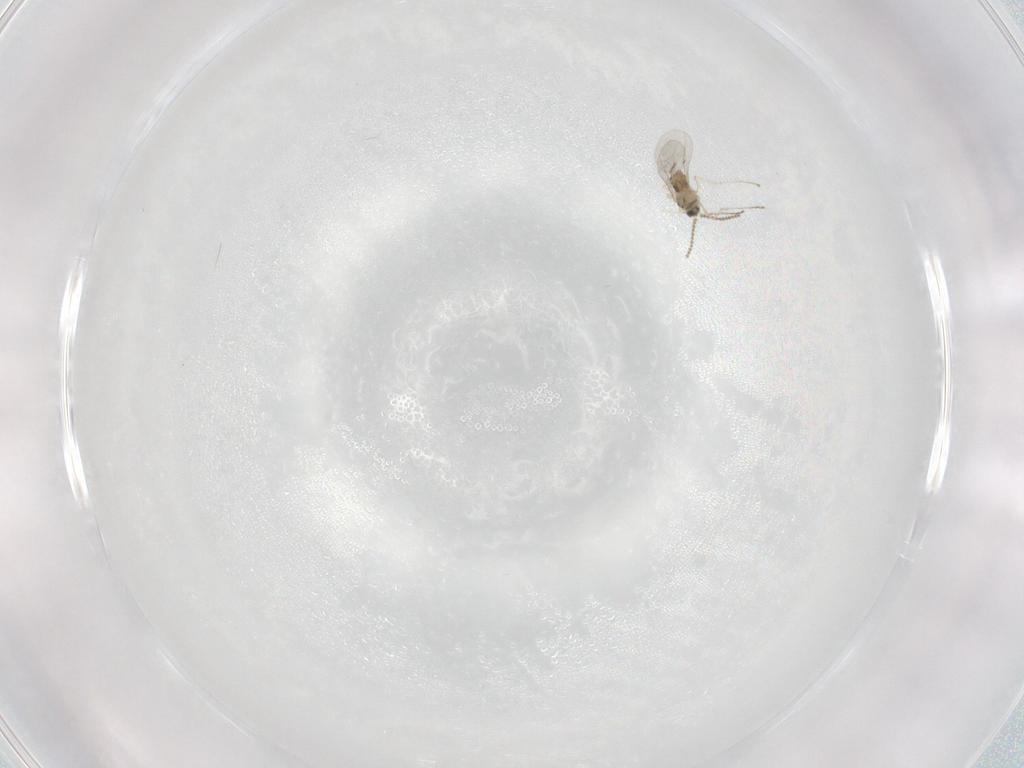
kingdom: Animalia
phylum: Arthropoda
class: Insecta
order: Diptera
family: Cecidomyiidae
